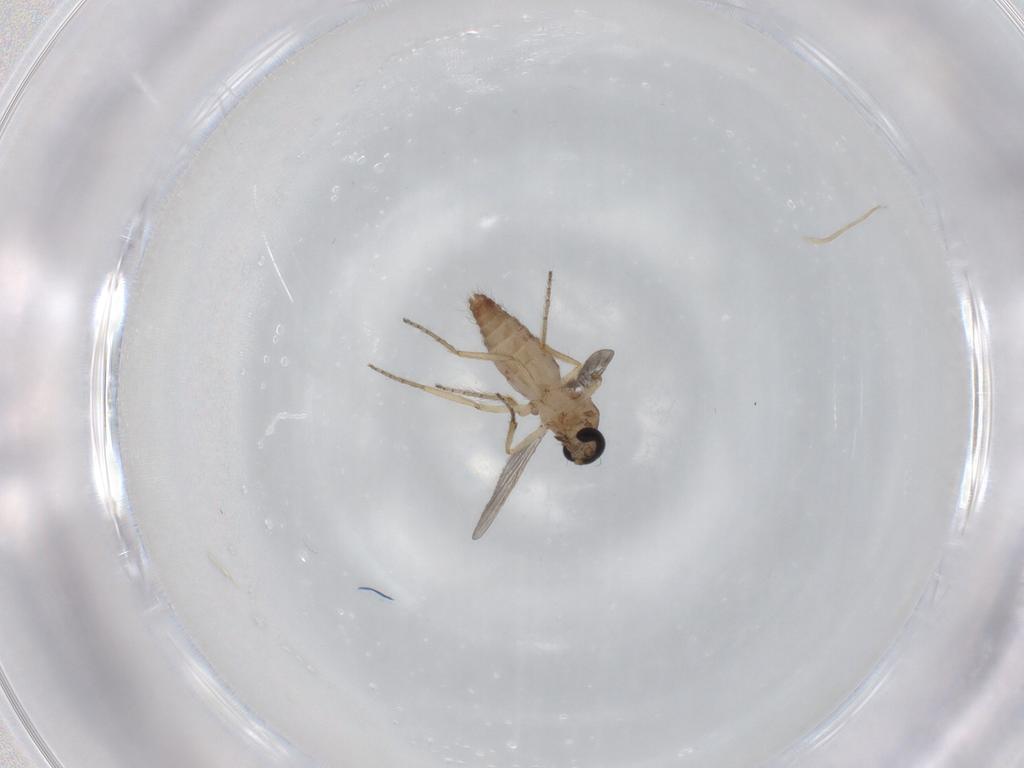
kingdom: Animalia
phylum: Arthropoda
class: Insecta
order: Diptera
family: Ceratopogonidae
